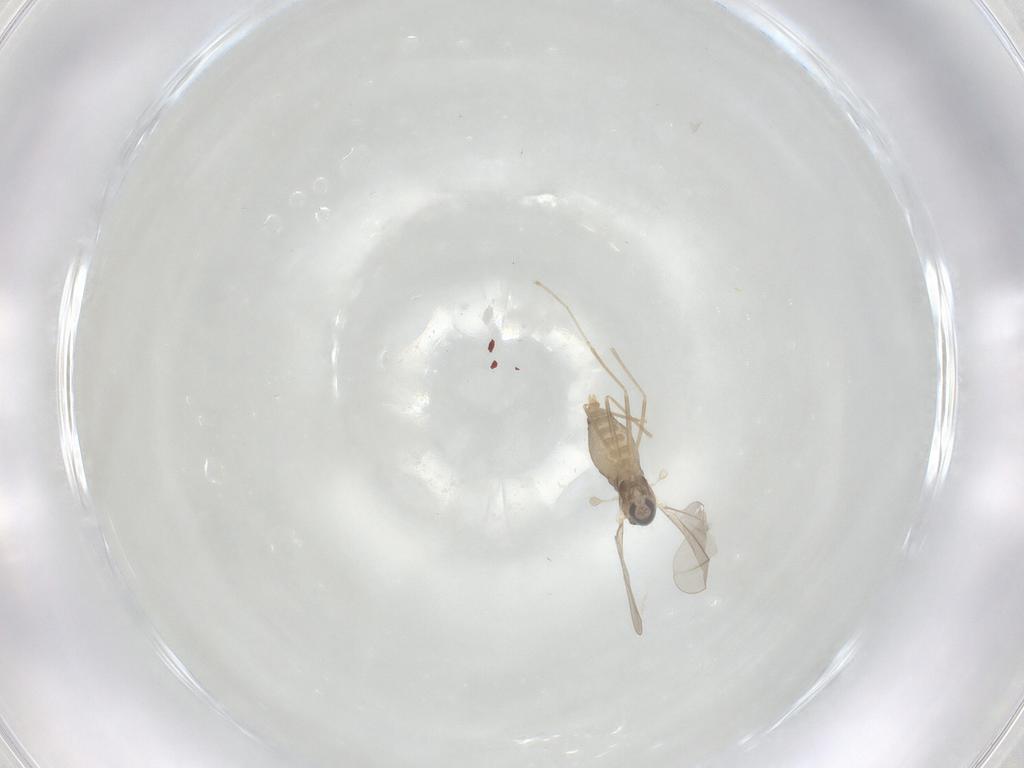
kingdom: Animalia
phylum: Arthropoda
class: Insecta
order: Diptera
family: Cecidomyiidae
